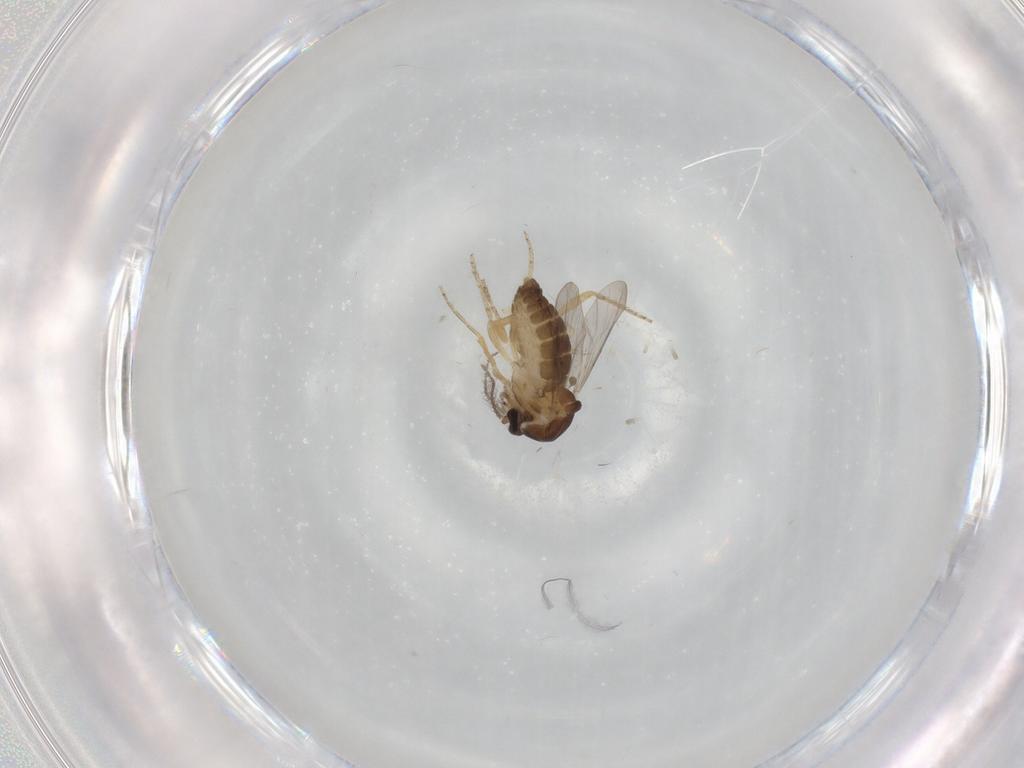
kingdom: Animalia
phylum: Arthropoda
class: Insecta
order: Diptera
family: Ceratopogonidae
